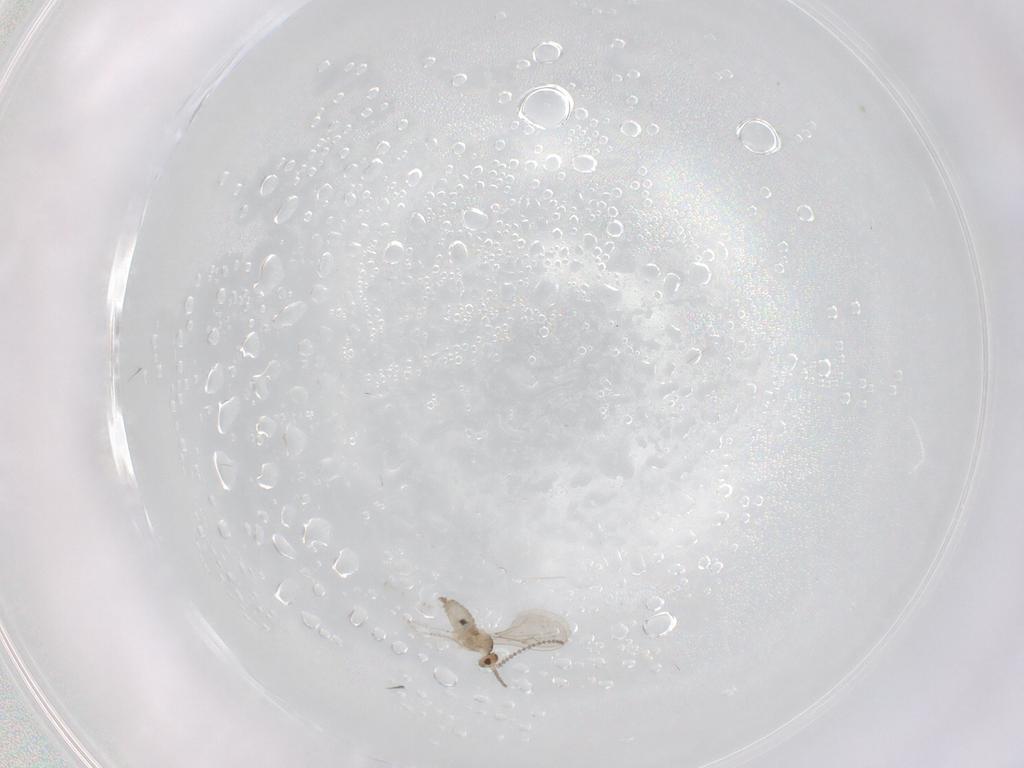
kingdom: Animalia
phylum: Arthropoda
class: Insecta
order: Diptera
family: Cecidomyiidae
